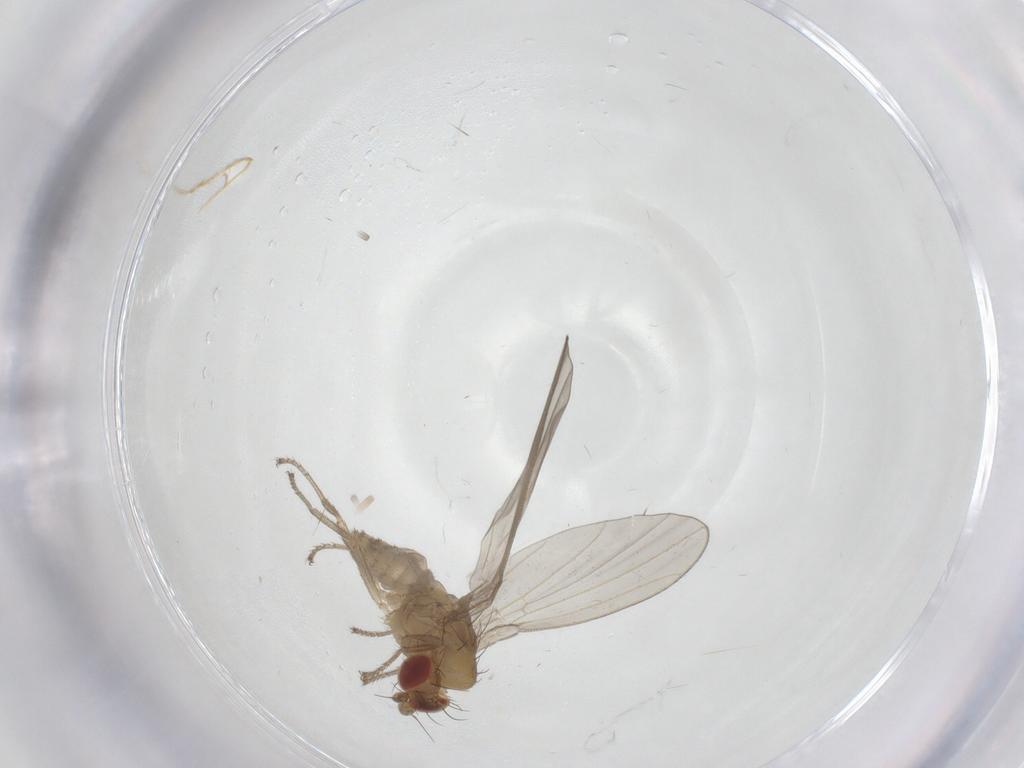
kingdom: Animalia
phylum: Arthropoda
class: Insecta
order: Diptera
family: Anthomyzidae
